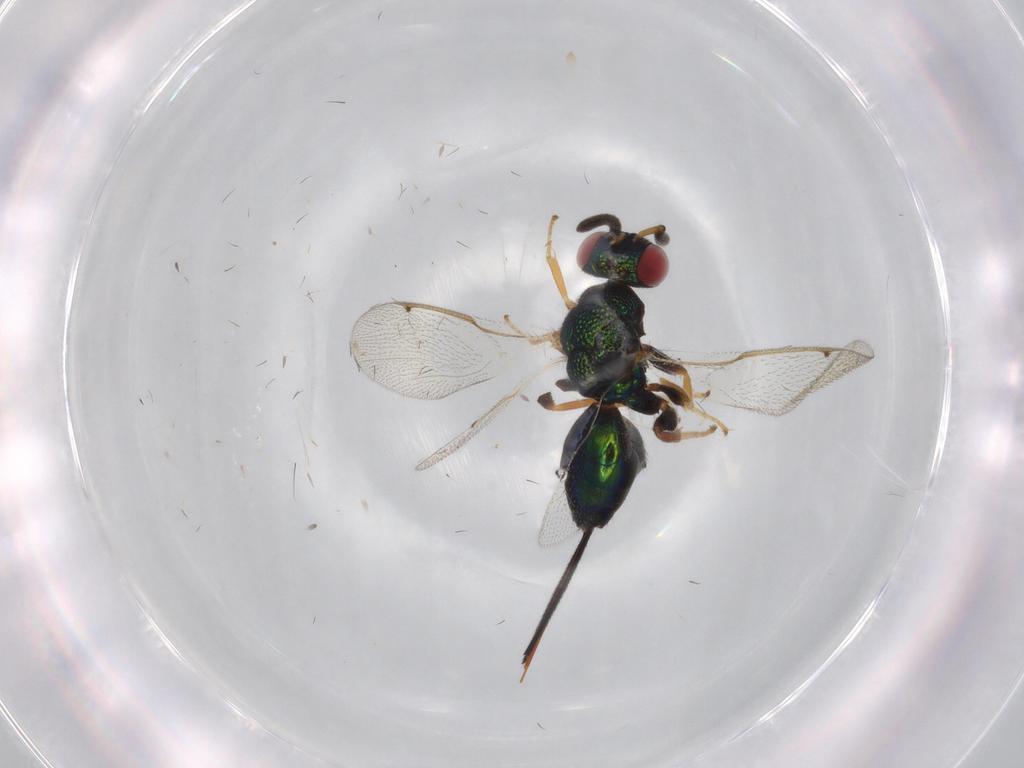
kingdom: Animalia
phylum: Arthropoda
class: Insecta
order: Hymenoptera
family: Torymidae
